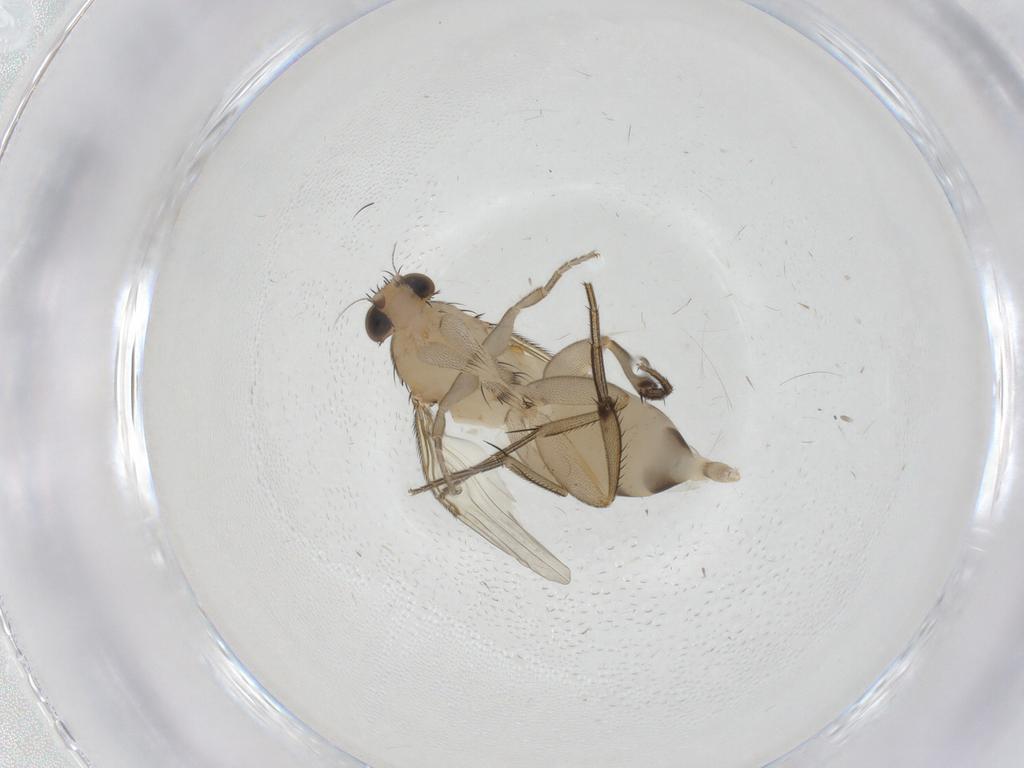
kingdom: Animalia
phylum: Arthropoda
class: Insecta
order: Diptera
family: Phoridae
